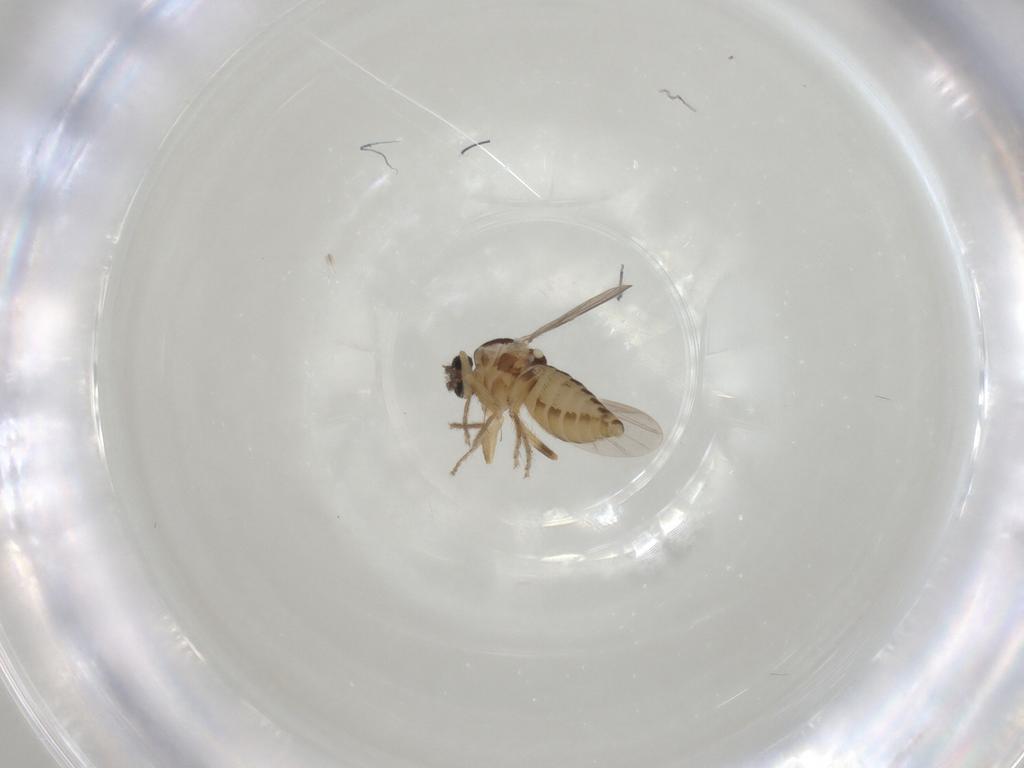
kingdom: Animalia
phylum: Arthropoda
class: Insecta
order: Diptera
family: Ceratopogonidae
